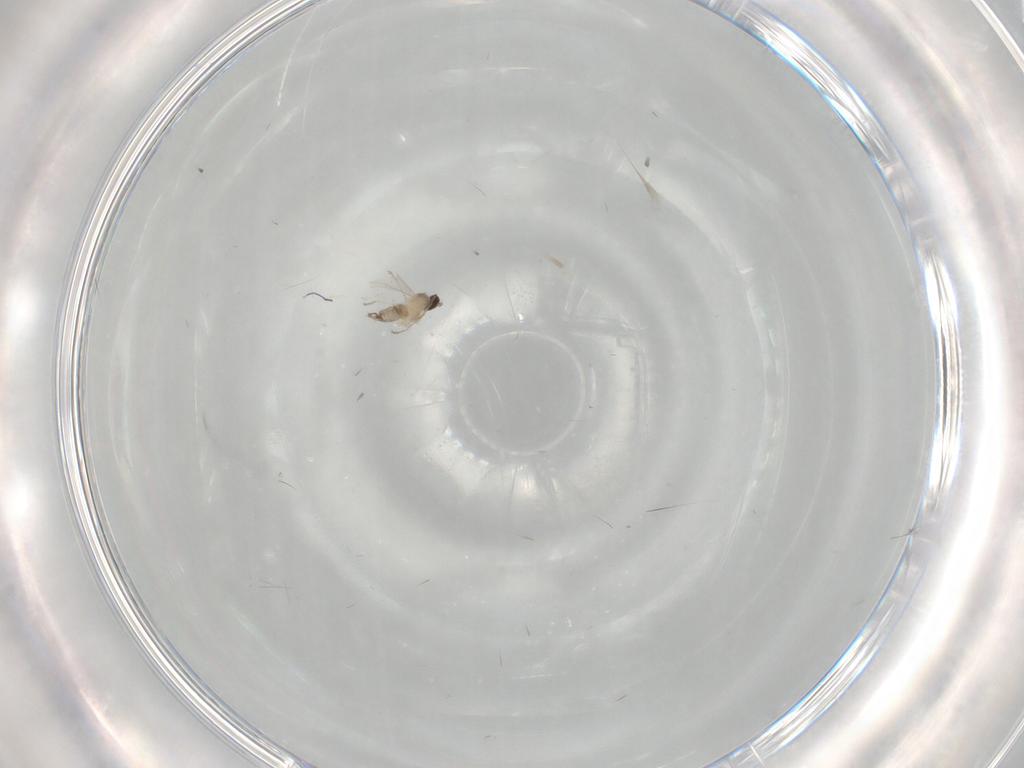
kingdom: Animalia
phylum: Arthropoda
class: Insecta
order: Diptera
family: Cecidomyiidae
